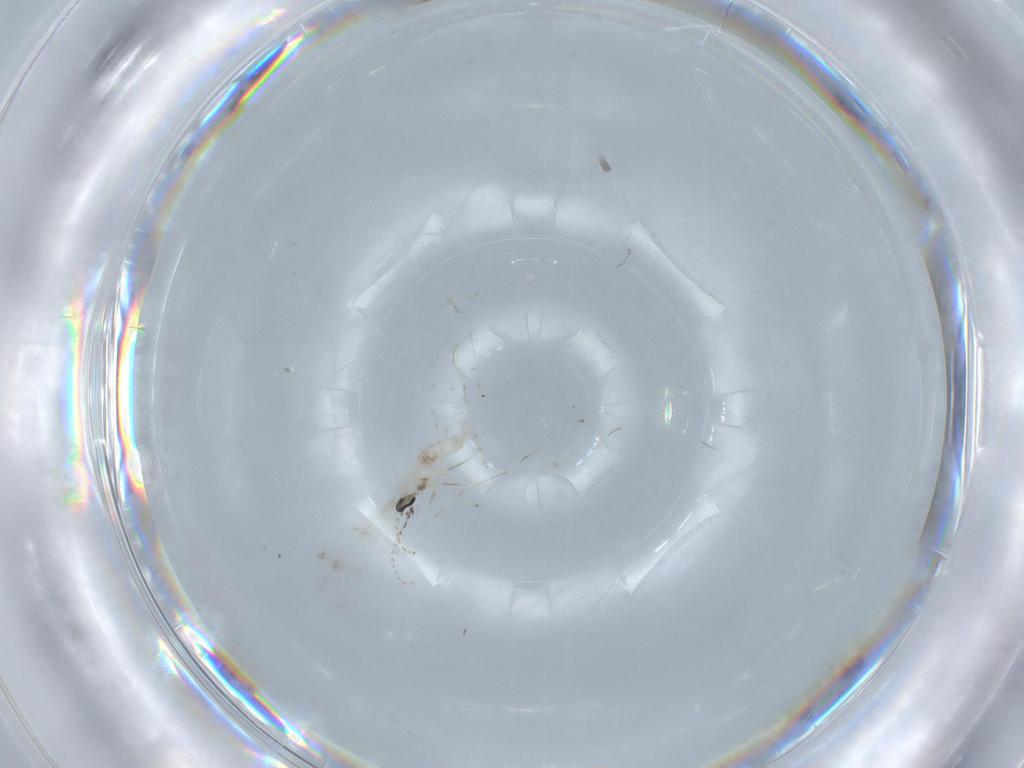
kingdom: Animalia
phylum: Arthropoda
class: Insecta
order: Diptera
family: Cecidomyiidae
